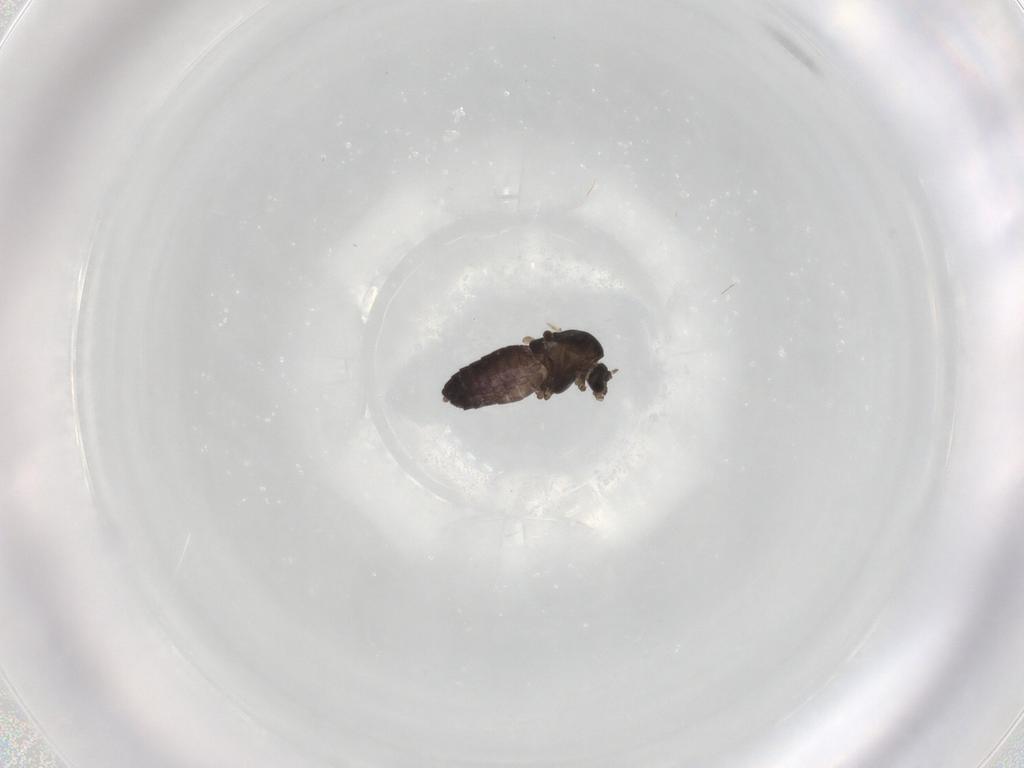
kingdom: Animalia
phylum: Arthropoda
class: Insecta
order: Diptera
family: Chironomidae
